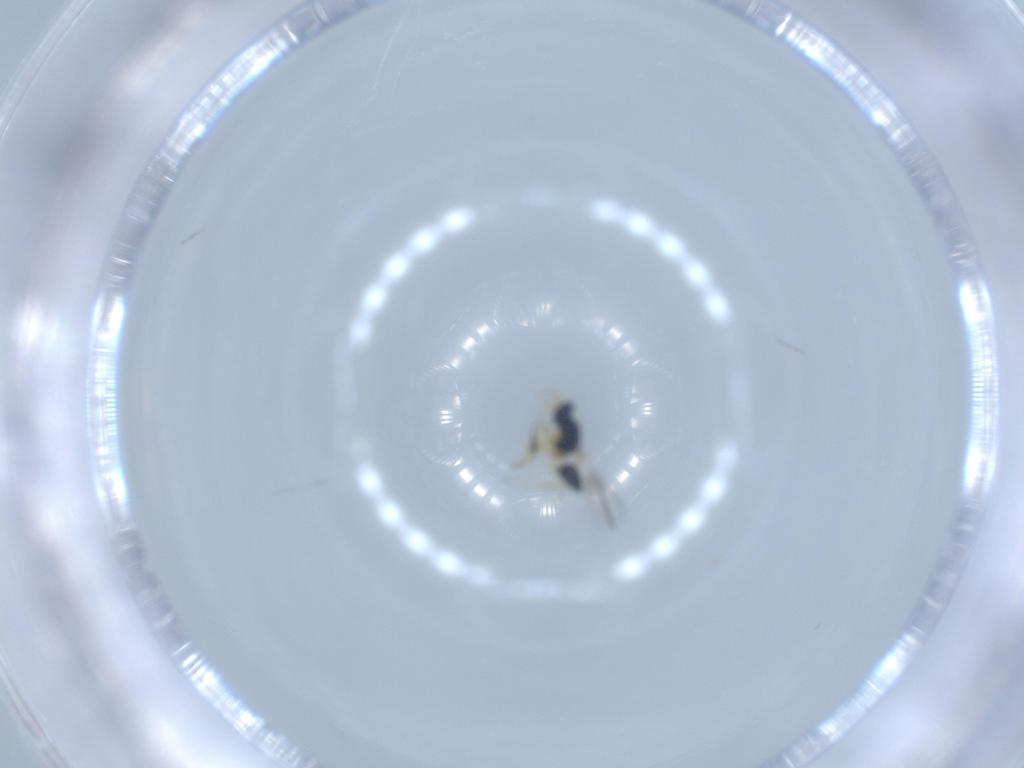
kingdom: Animalia
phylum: Arthropoda
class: Insecta
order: Hymenoptera
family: Mymaridae
